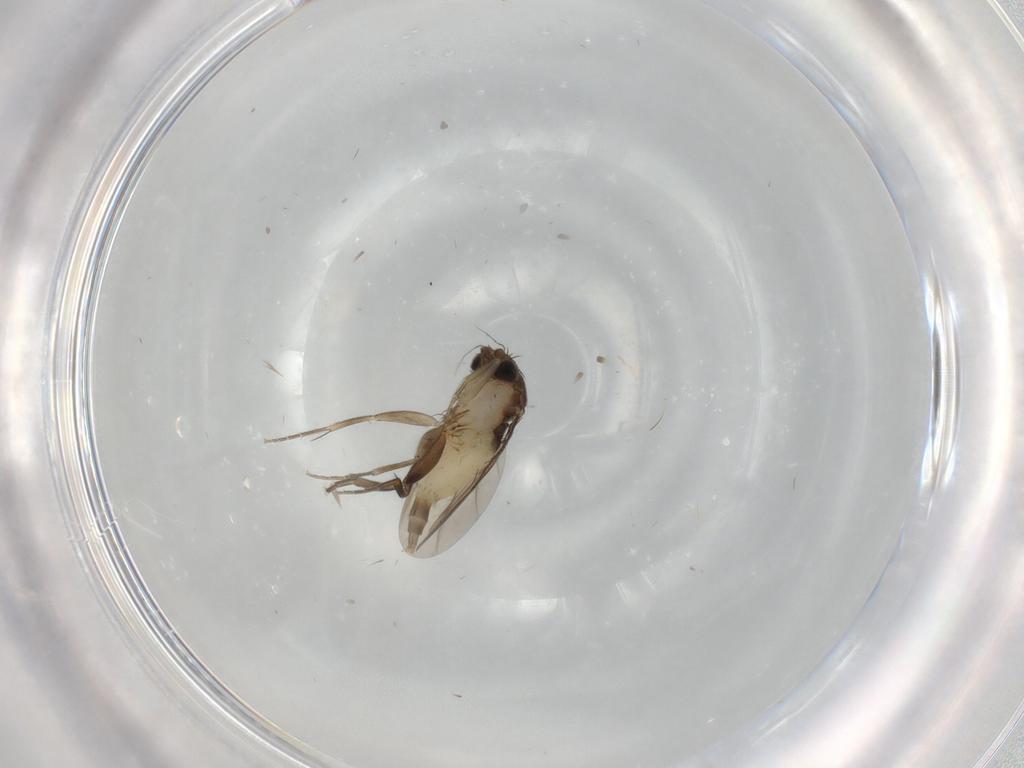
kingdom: Animalia
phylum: Arthropoda
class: Insecta
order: Diptera
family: Phoridae
